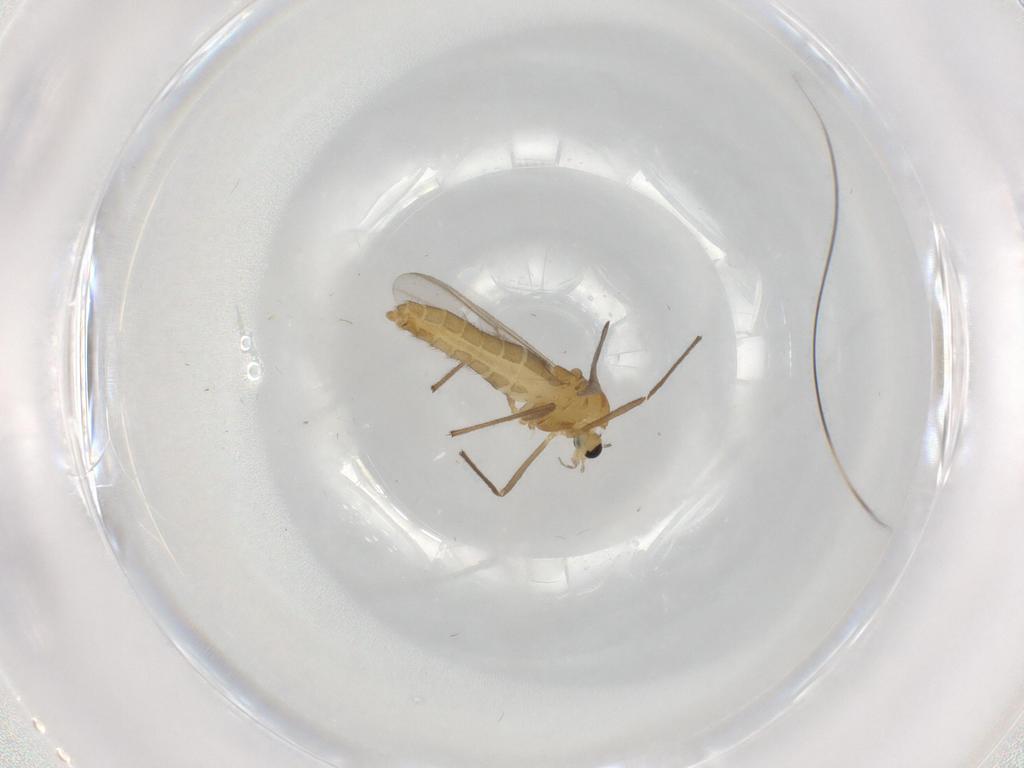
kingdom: Animalia
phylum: Arthropoda
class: Insecta
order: Diptera
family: Chironomidae
